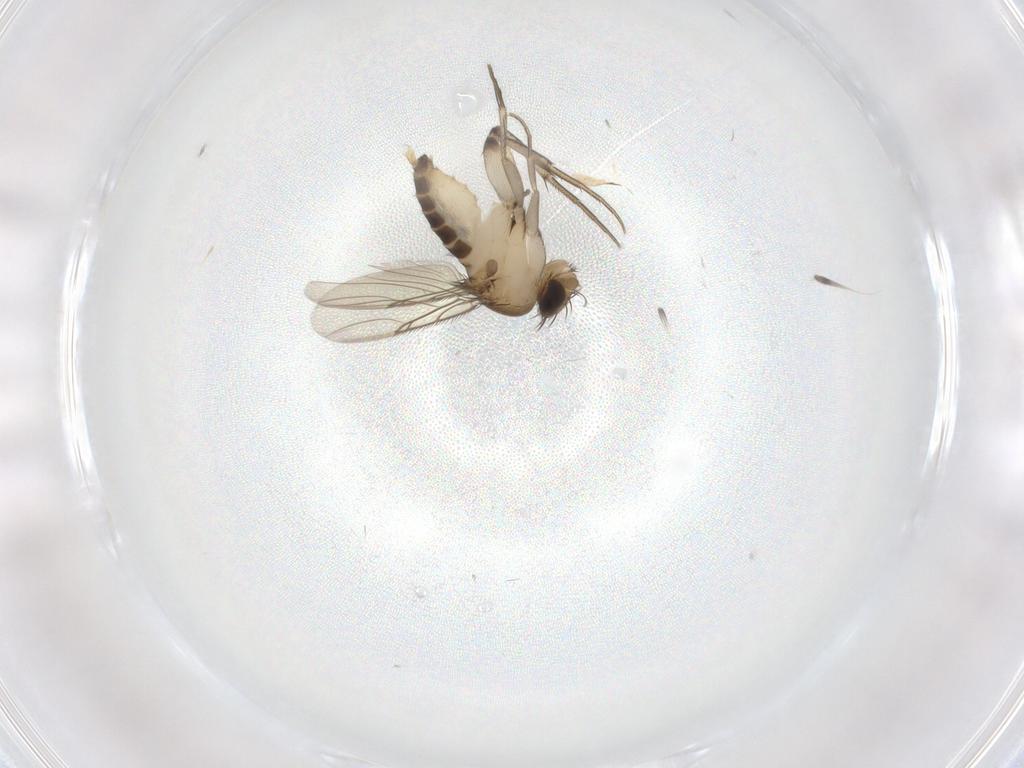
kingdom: Animalia
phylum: Arthropoda
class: Insecta
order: Diptera
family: Phoridae
